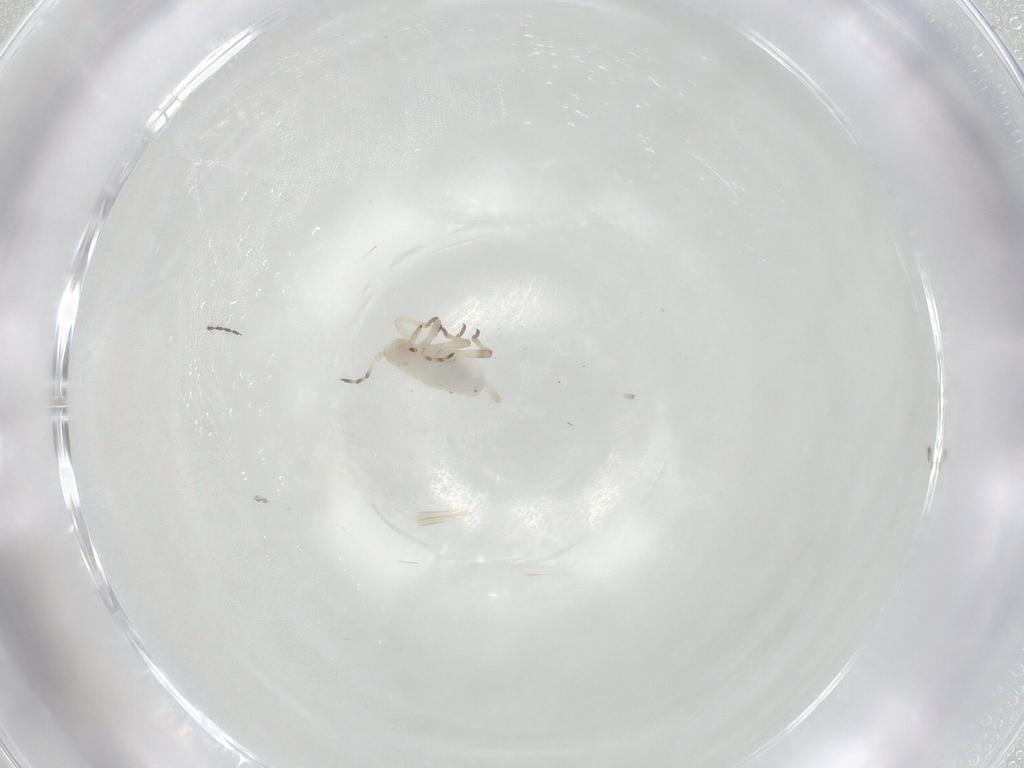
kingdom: Animalia
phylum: Arthropoda
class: Insecta
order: Hemiptera
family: Aphididae
